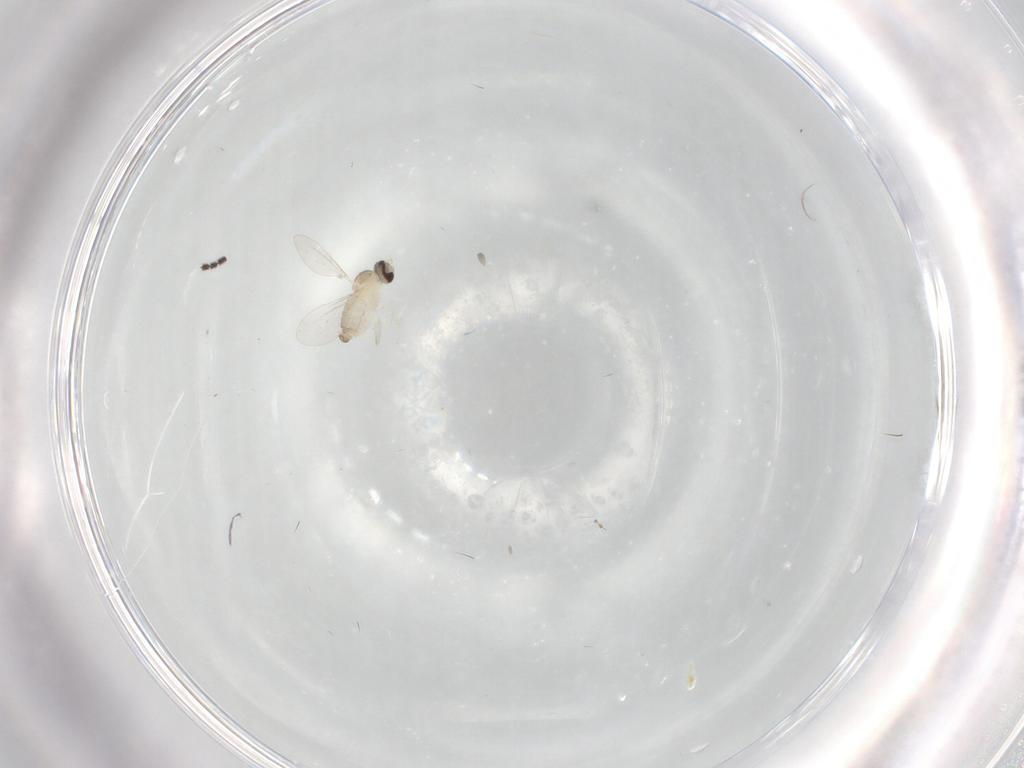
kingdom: Animalia
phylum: Arthropoda
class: Insecta
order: Diptera
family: Cecidomyiidae
